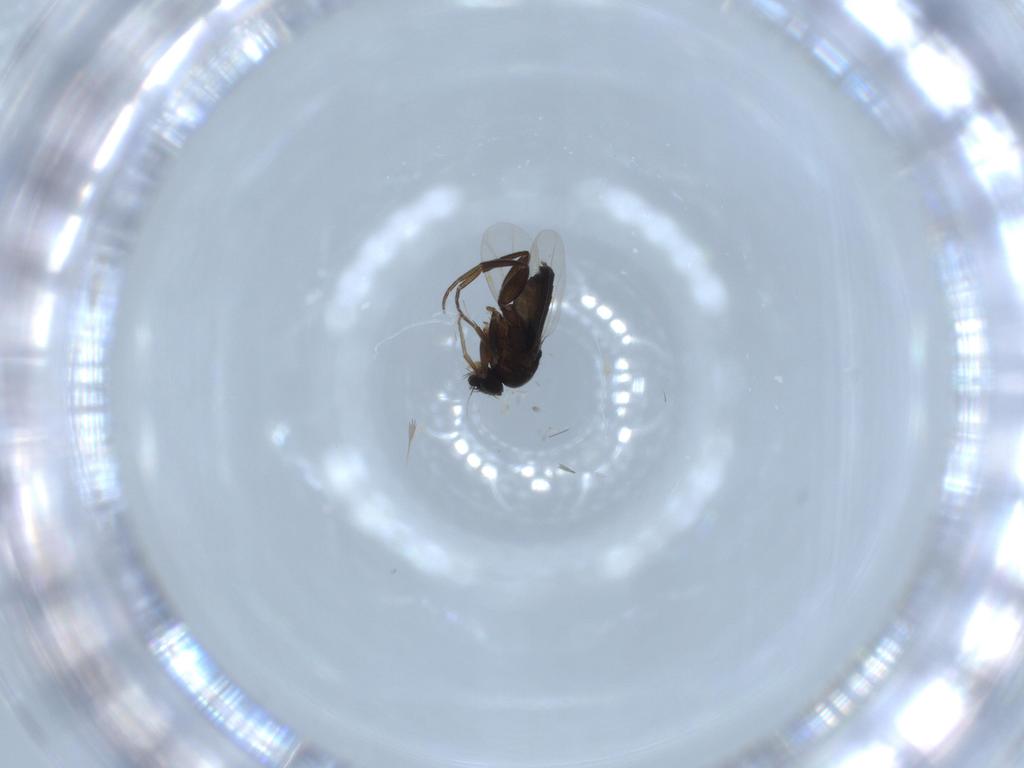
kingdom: Animalia
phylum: Arthropoda
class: Insecta
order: Diptera
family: Phoridae
